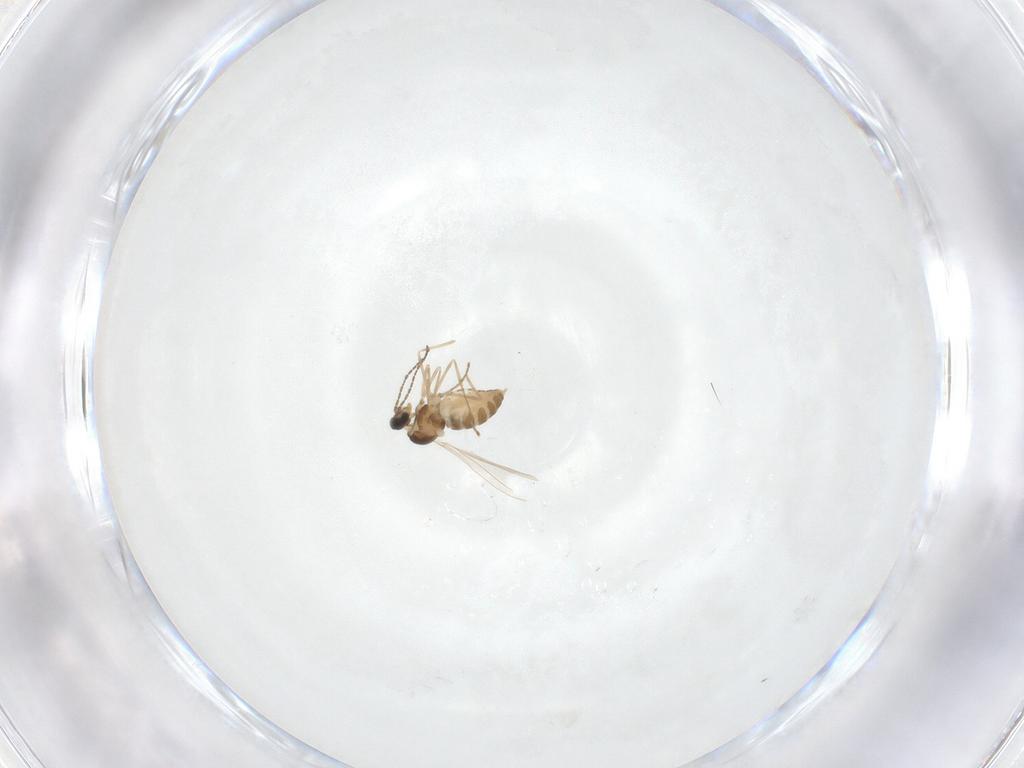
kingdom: Animalia
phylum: Arthropoda
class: Insecta
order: Diptera
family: Cecidomyiidae
